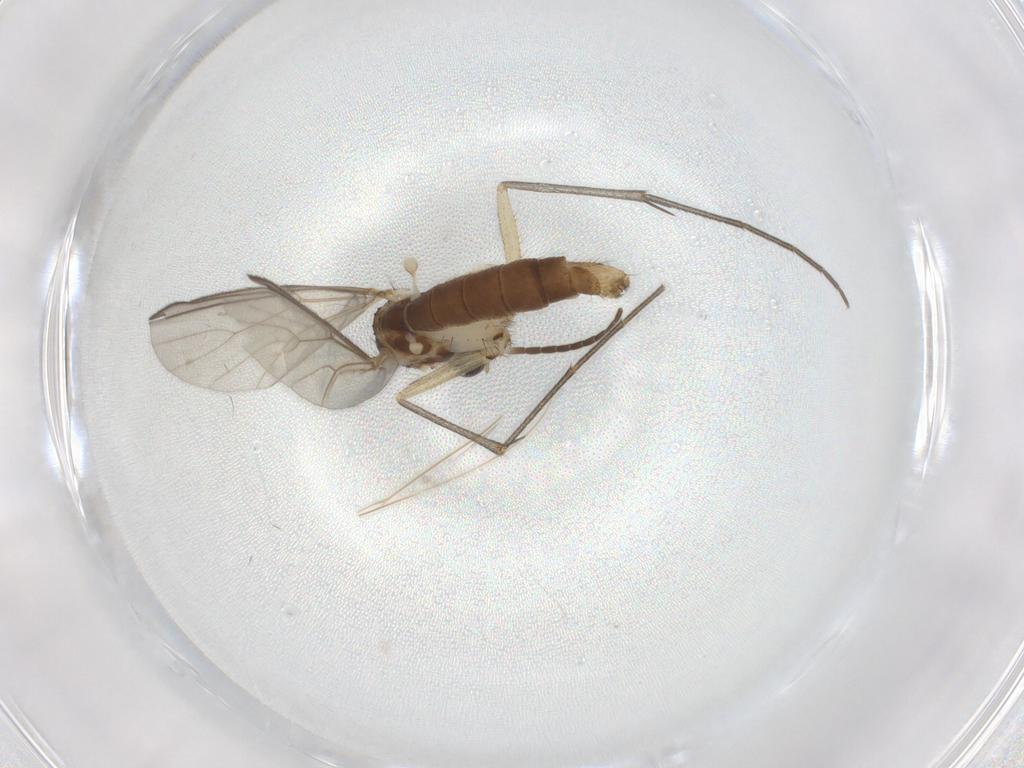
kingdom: Animalia
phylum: Arthropoda
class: Insecta
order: Diptera
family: Mycetophilidae
